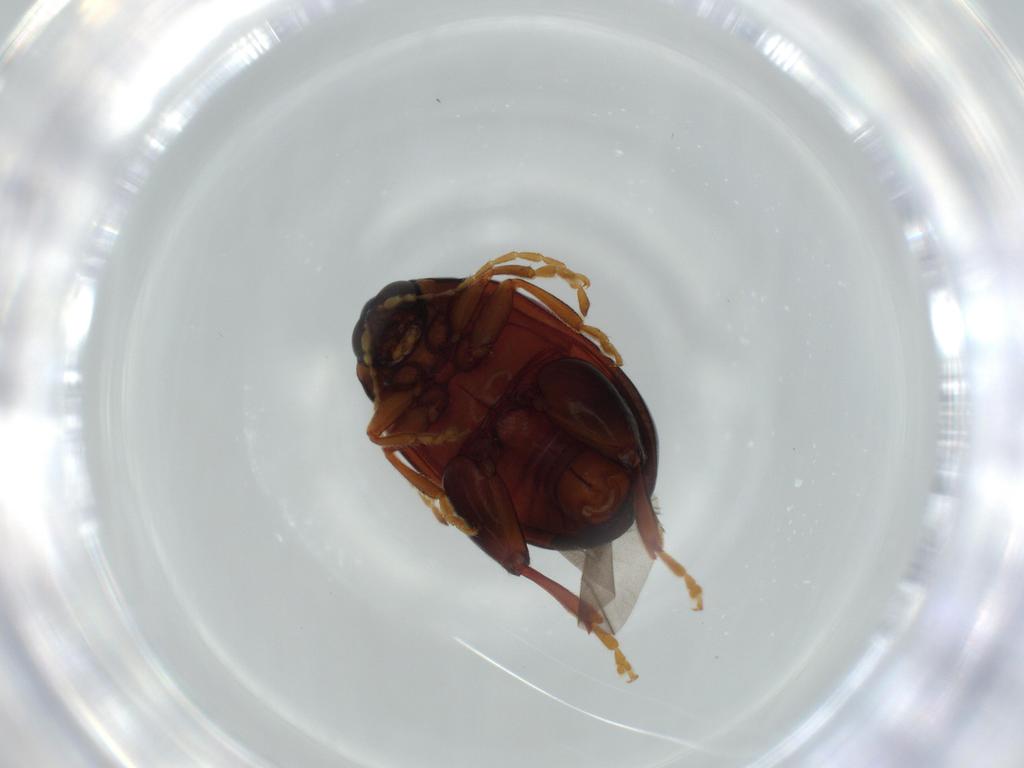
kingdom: Animalia
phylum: Arthropoda
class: Insecta
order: Coleoptera
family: Chrysomelidae
